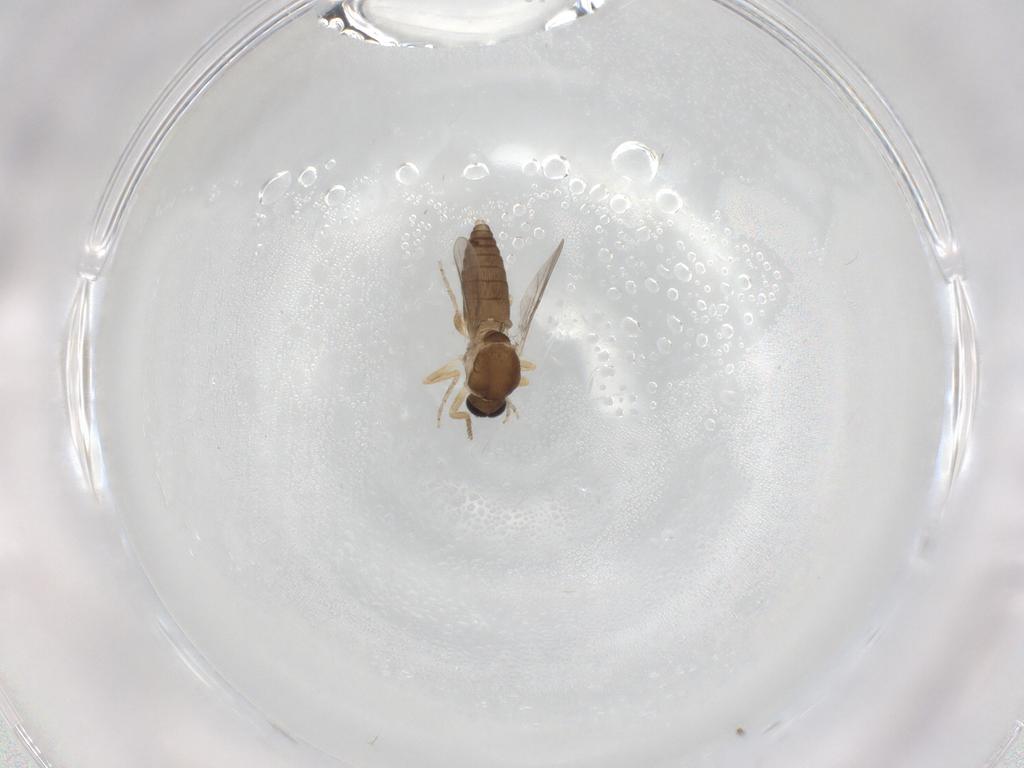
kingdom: Animalia
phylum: Arthropoda
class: Insecta
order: Diptera
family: Ceratopogonidae
